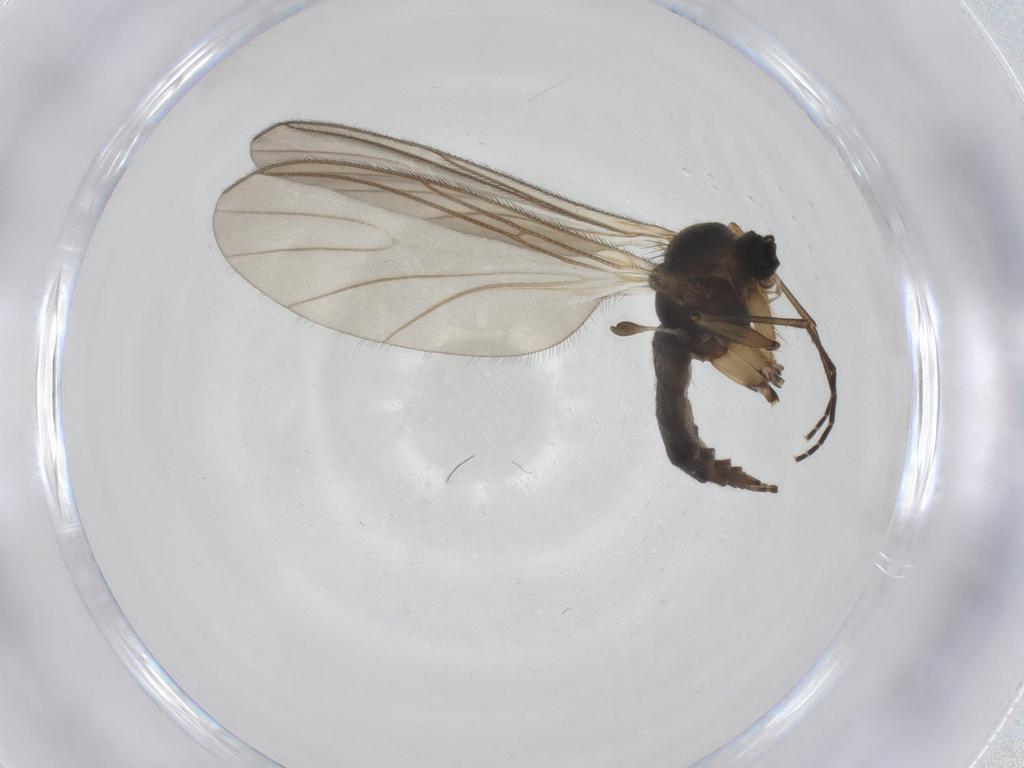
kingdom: Animalia
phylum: Arthropoda
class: Insecta
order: Diptera
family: Sciaridae
